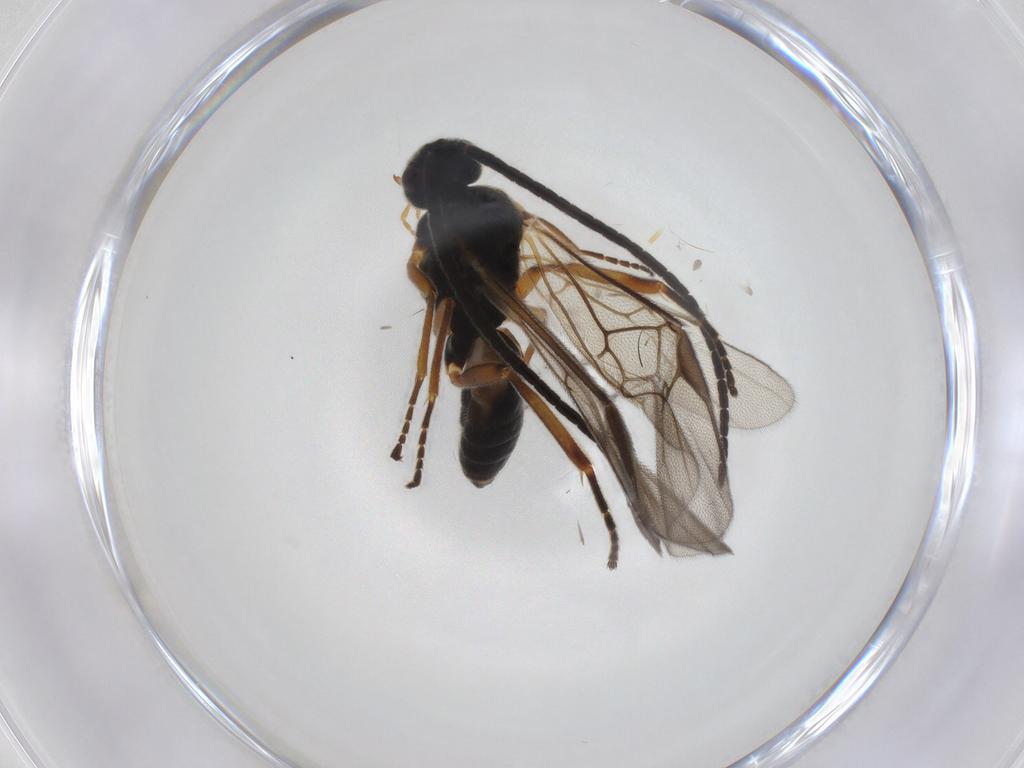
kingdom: Animalia
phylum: Arthropoda
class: Insecta
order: Hymenoptera
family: Braconidae
